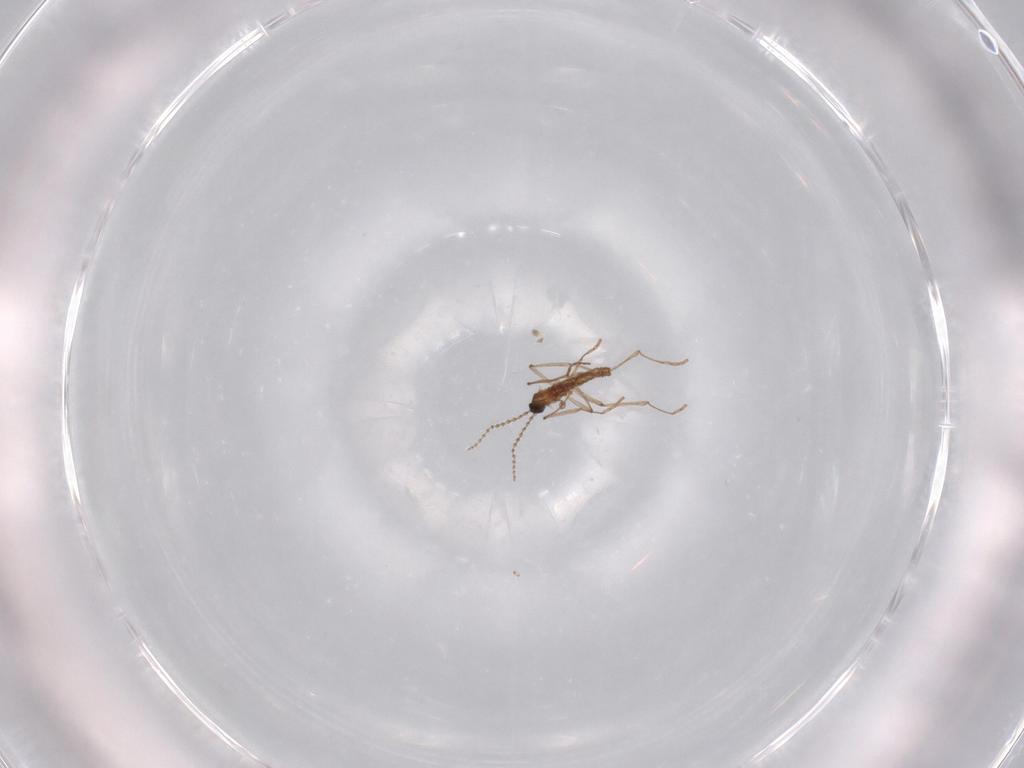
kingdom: Animalia
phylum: Arthropoda
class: Insecta
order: Diptera
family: Cecidomyiidae
